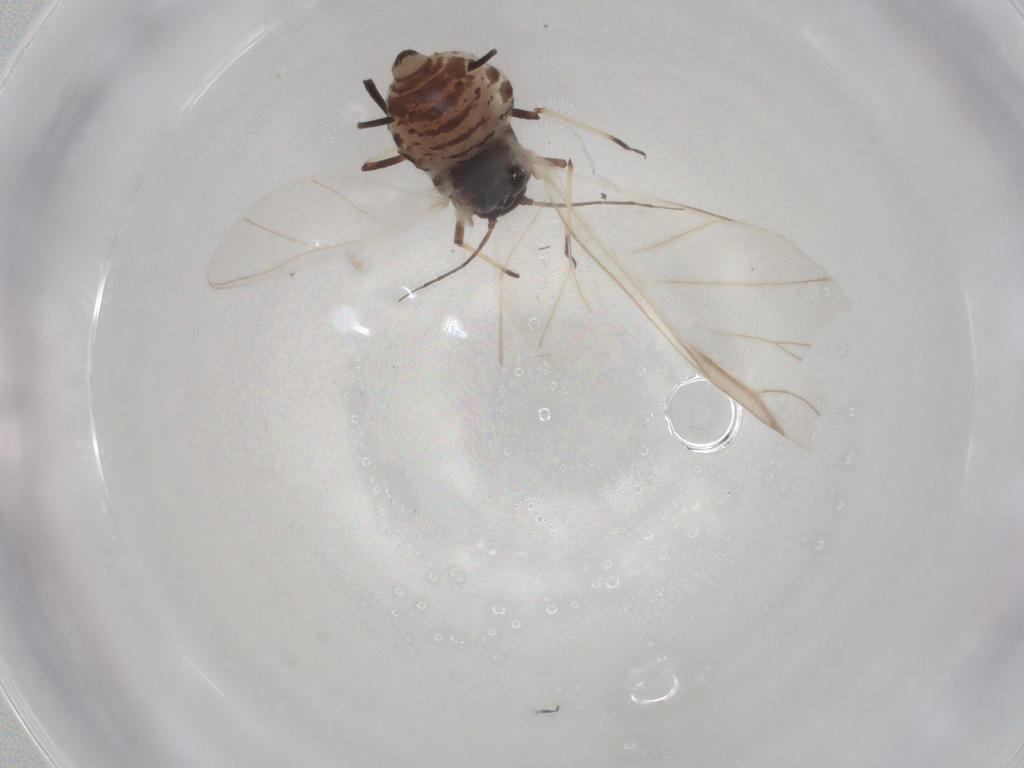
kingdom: Animalia
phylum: Arthropoda
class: Insecta
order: Hemiptera
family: Aphididae
